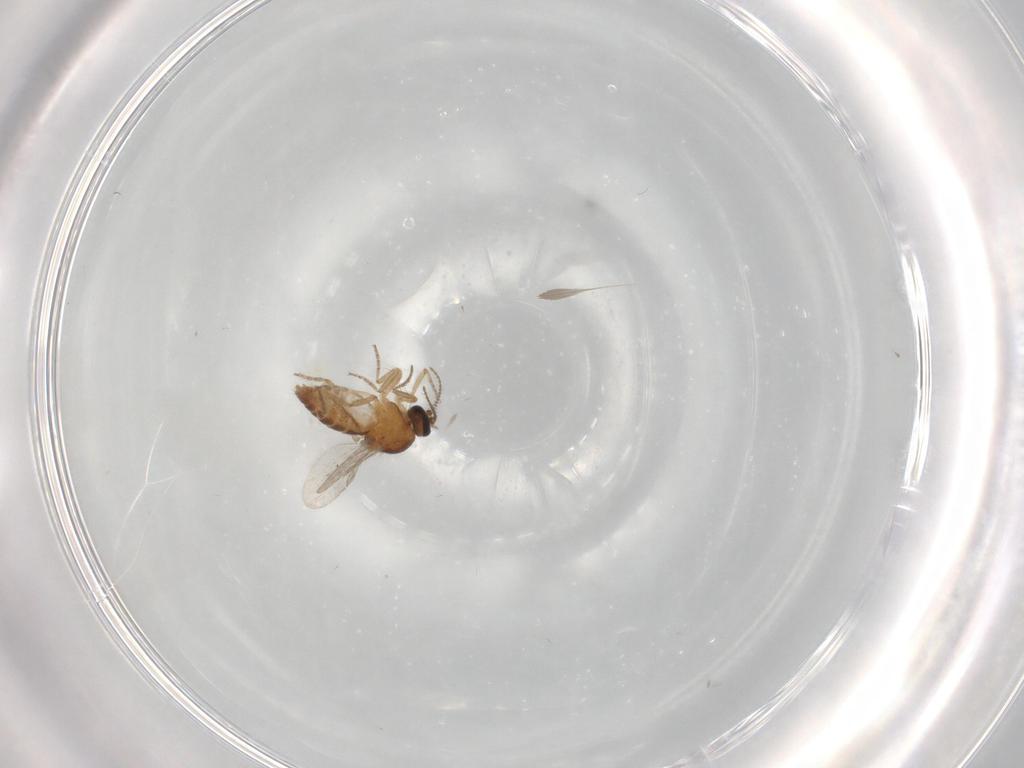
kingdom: Animalia
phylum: Arthropoda
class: Insecta
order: Diptera
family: Ceratopogonidae
